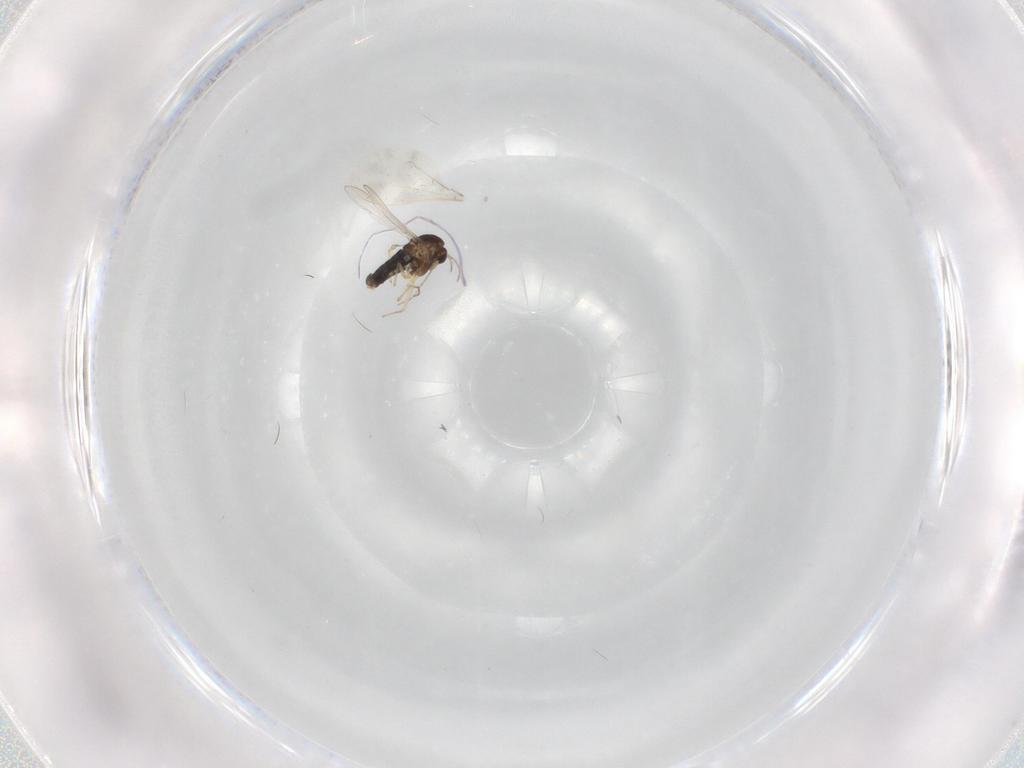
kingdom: Animalia
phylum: Arthropoda
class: Insecta
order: Diptera
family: Chironomidae
